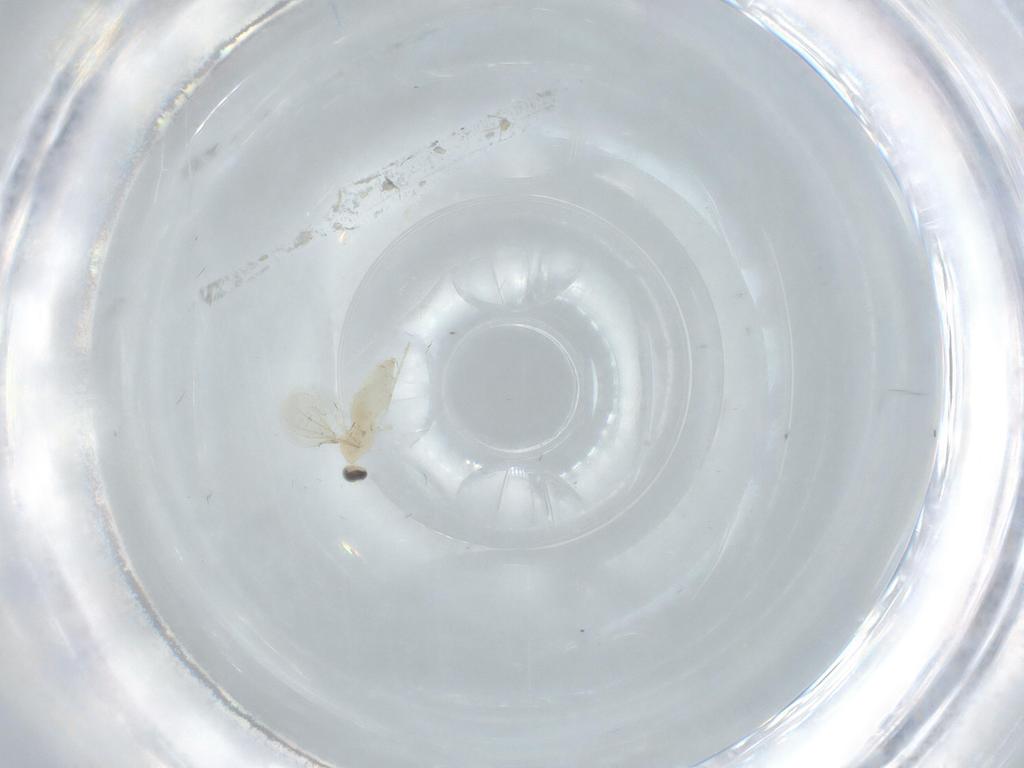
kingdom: Animalia
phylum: Arthropoda
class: Insecta
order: Diptera
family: Cecidomyiidae
